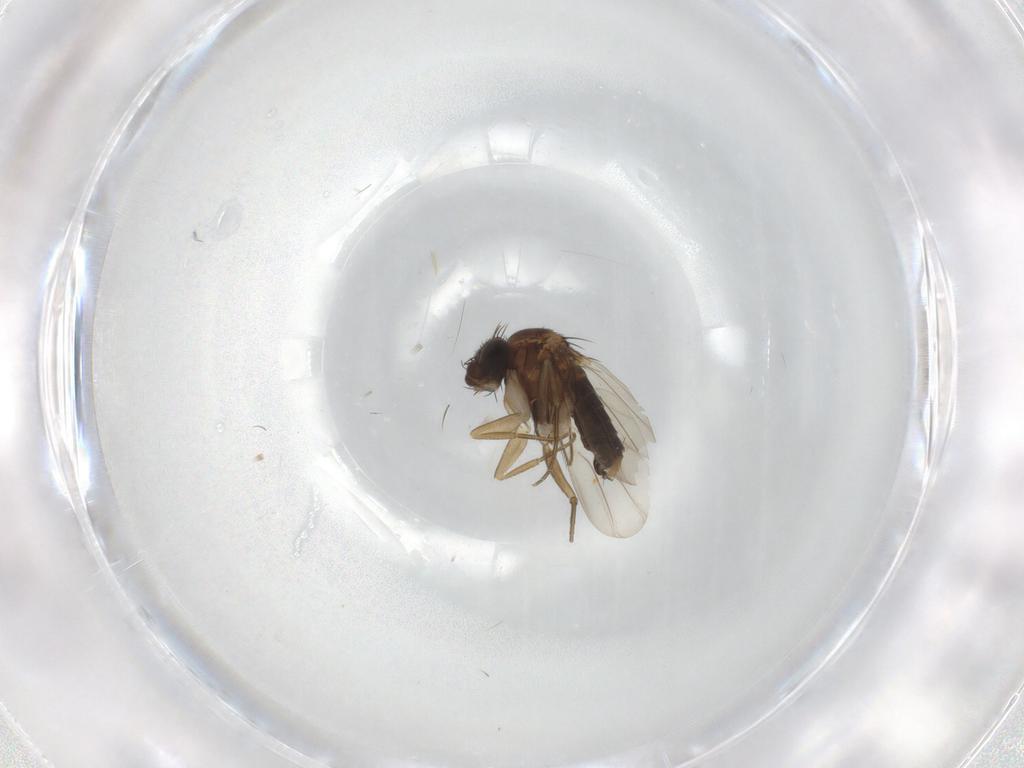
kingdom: Animalia
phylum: Arthropoda
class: Insecta
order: Diptera
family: Phoridae
